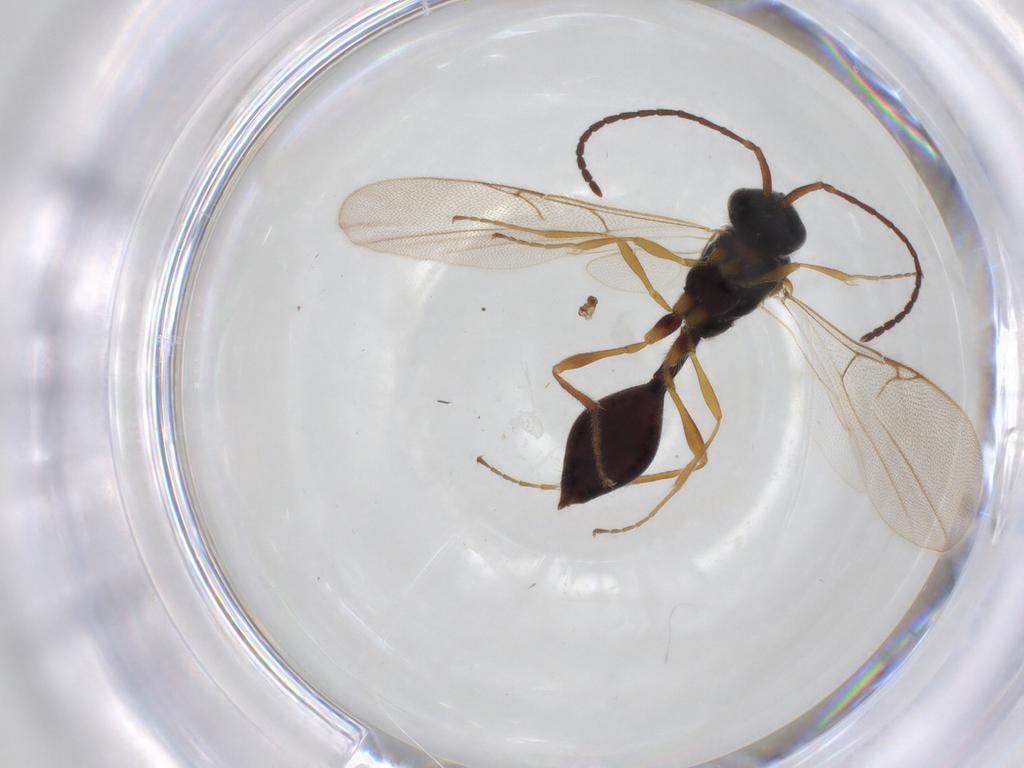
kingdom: Animalia
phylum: Arthropoda
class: Insecta
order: Hymenoptera
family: Diapriidae
